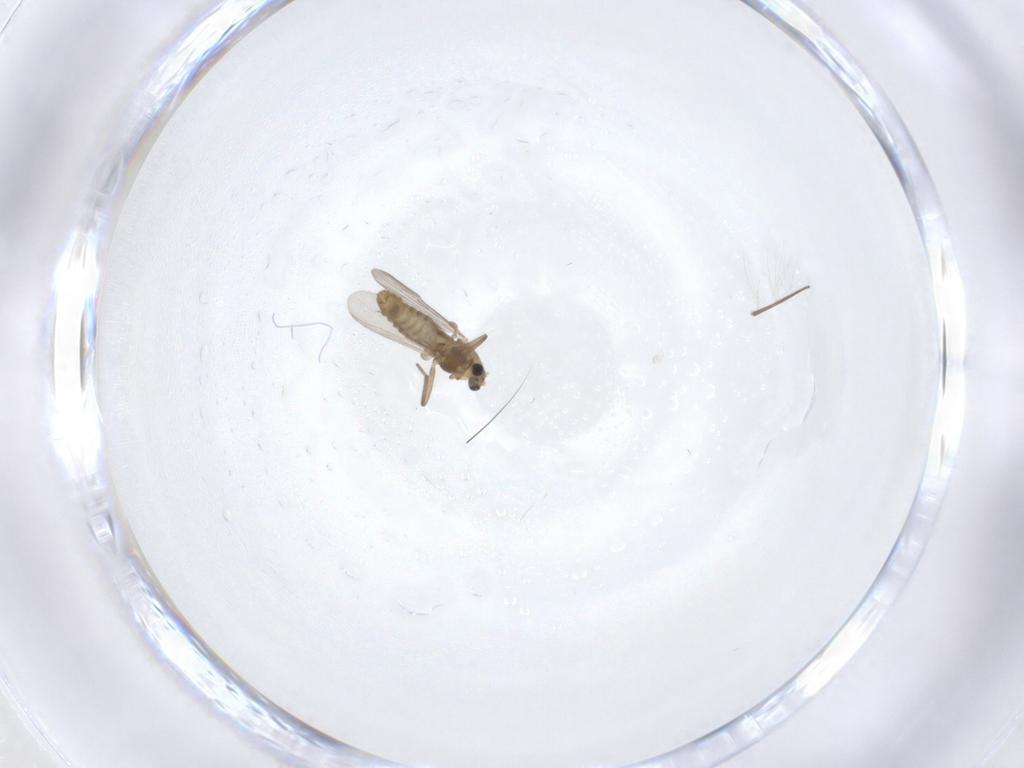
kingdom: Animalia
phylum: Arthropoda
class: Insecta
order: Diptera
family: Chironomidae
